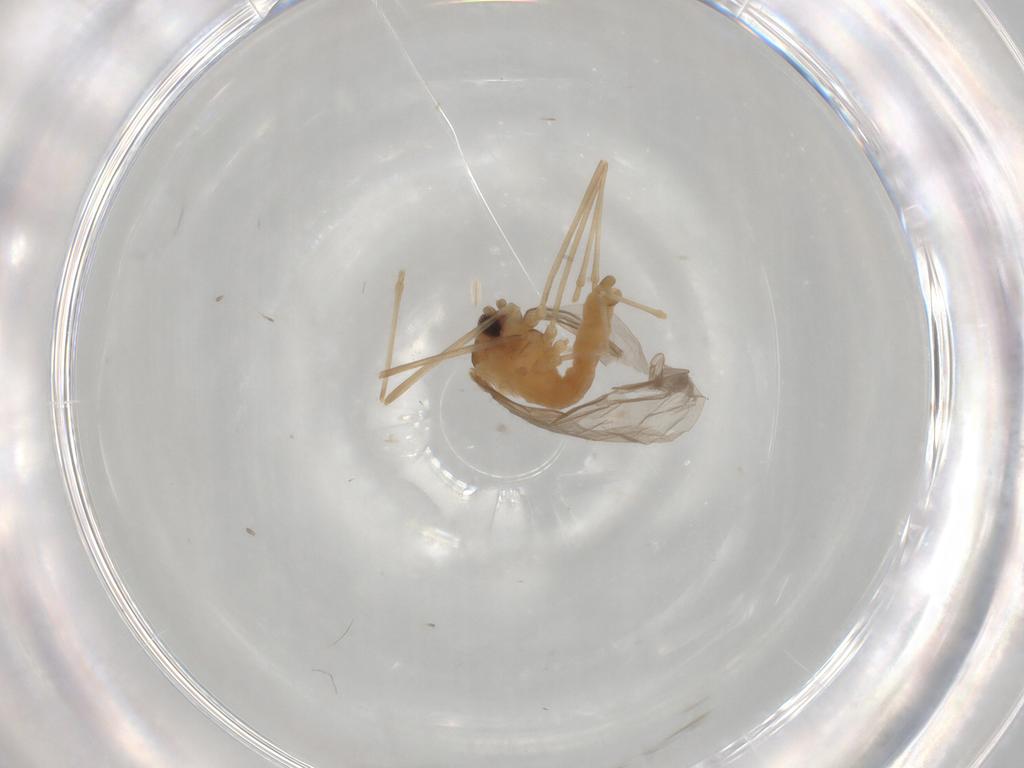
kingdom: Animalia
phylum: Arthropoda
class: Insecta
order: Diptera
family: Cecidomyiidae
